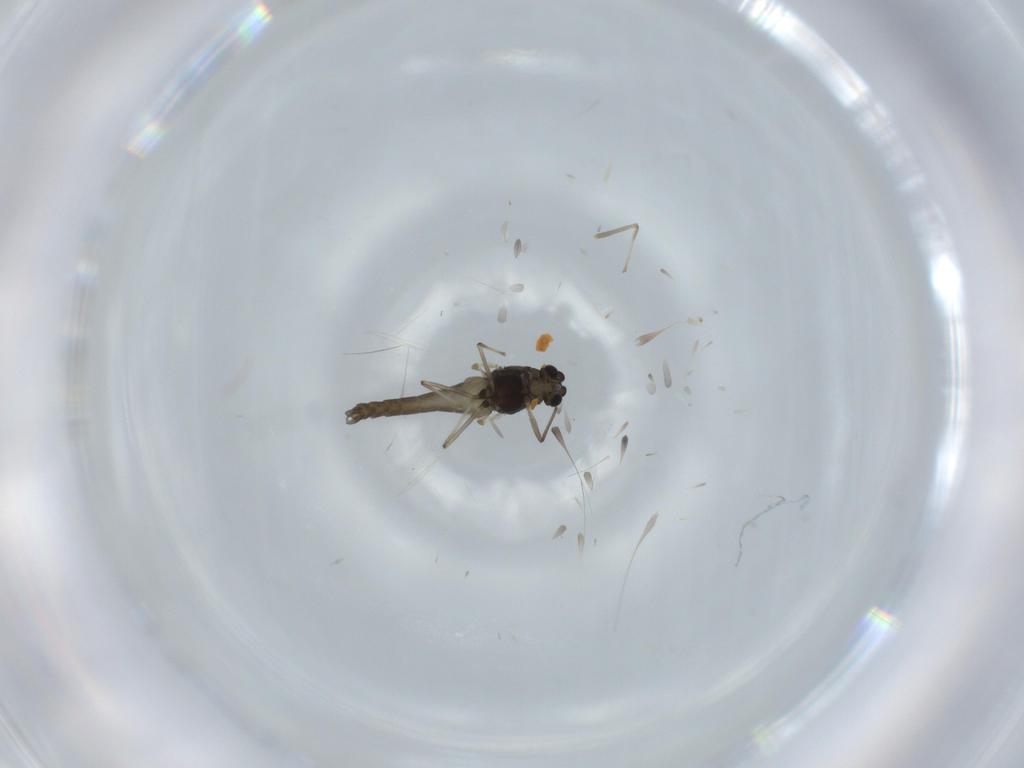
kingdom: Animalia
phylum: Arthropoda
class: Insecta
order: Diptera
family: Chironomidae
